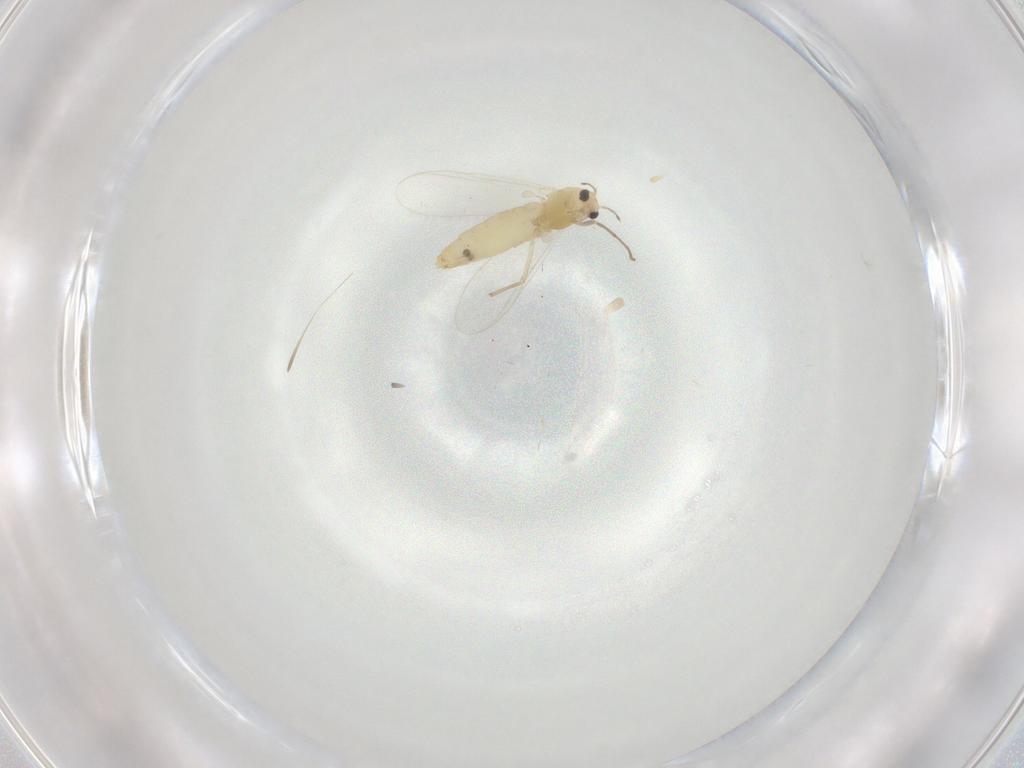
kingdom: Animalia
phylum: Arthropoda
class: Insecta
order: Diptera
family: Chironomidae
